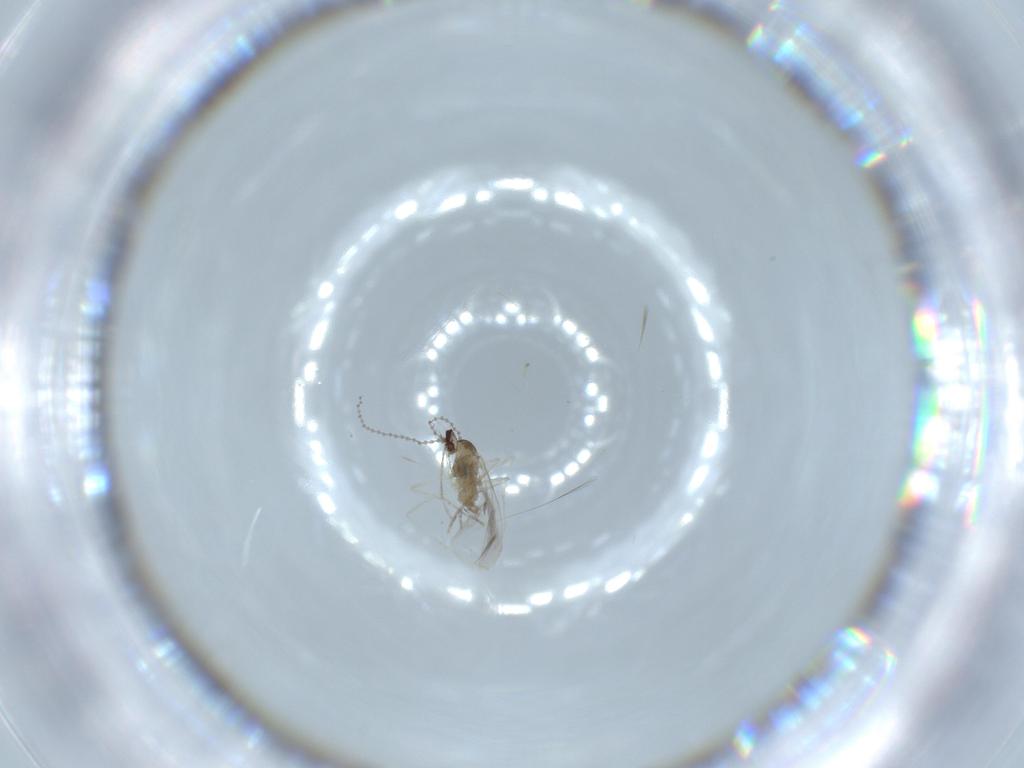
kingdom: Animalia
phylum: Arthropoda
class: Insecta
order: Diptera
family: Cecidomyiidae
